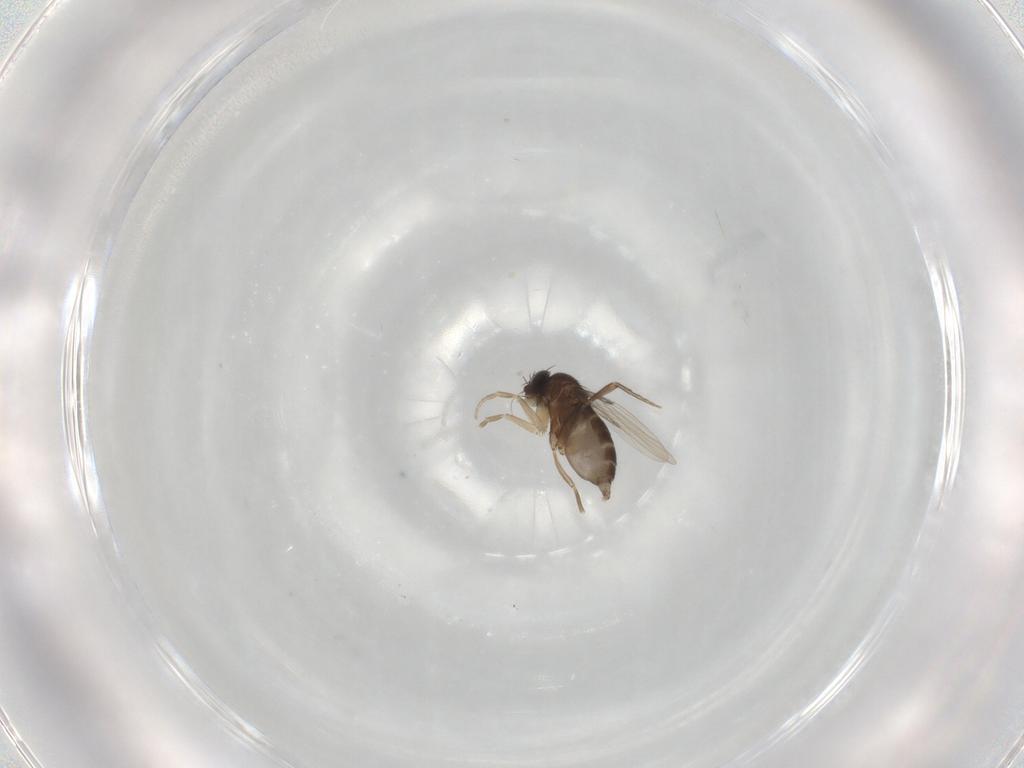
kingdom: Animalia
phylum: Arthropoda
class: Insecta
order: Diptera
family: Phoridae
